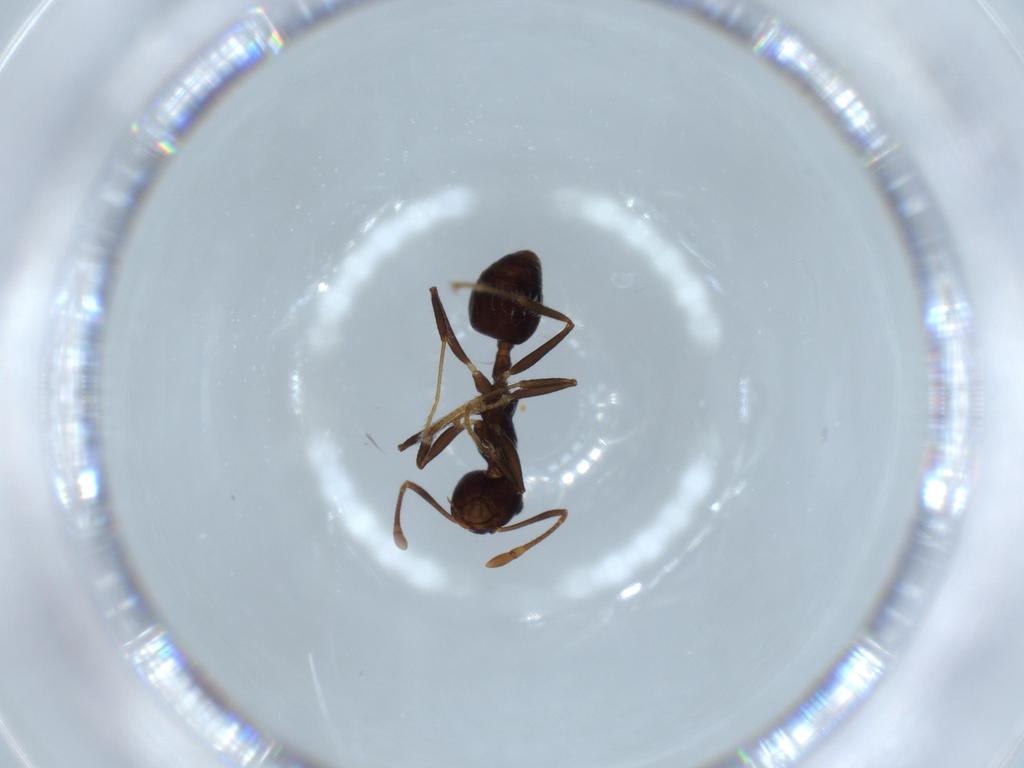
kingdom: Animalia
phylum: Arthropoda
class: Insecta
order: Hymenoptera
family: Formicidae
